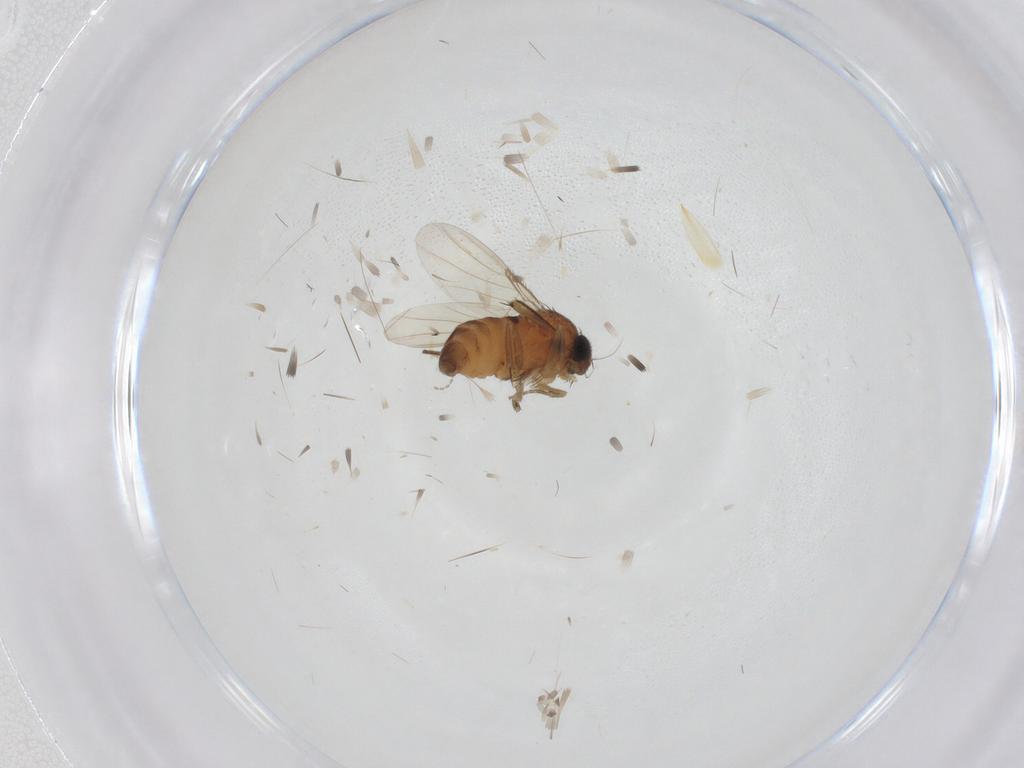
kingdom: Animalia
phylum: Arthropoda
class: Insecta
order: Diptera
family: Phoridae
